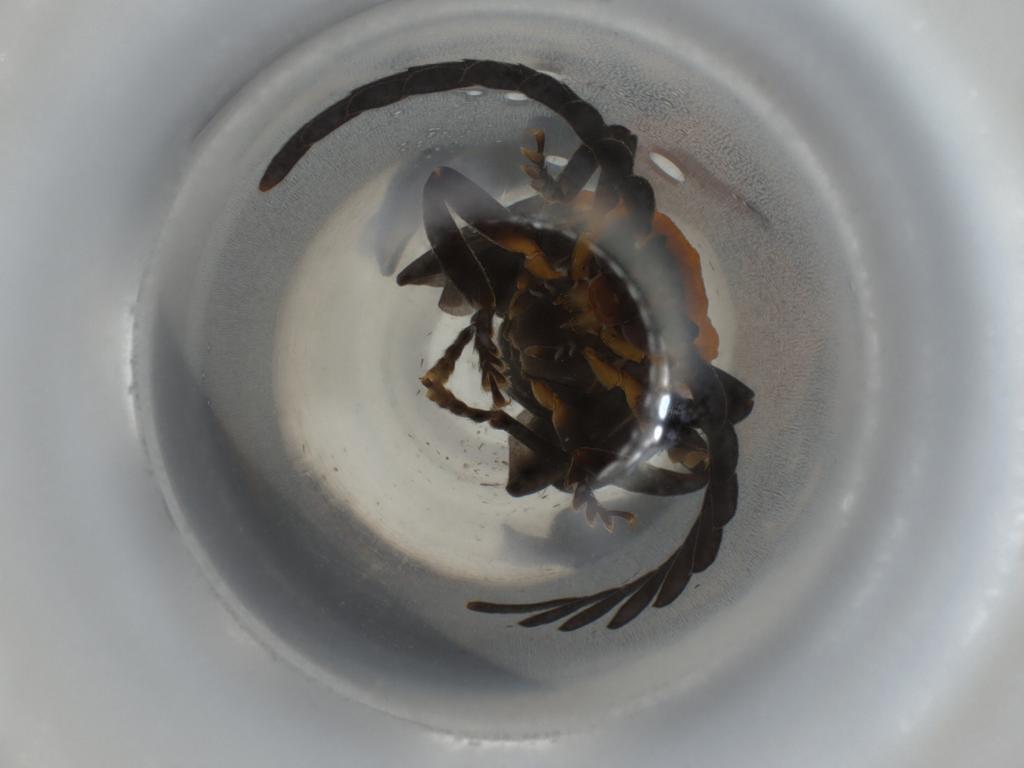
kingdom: Animalia
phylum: Arthropoda
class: Insecta
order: Coleoptera
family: Lycidae
